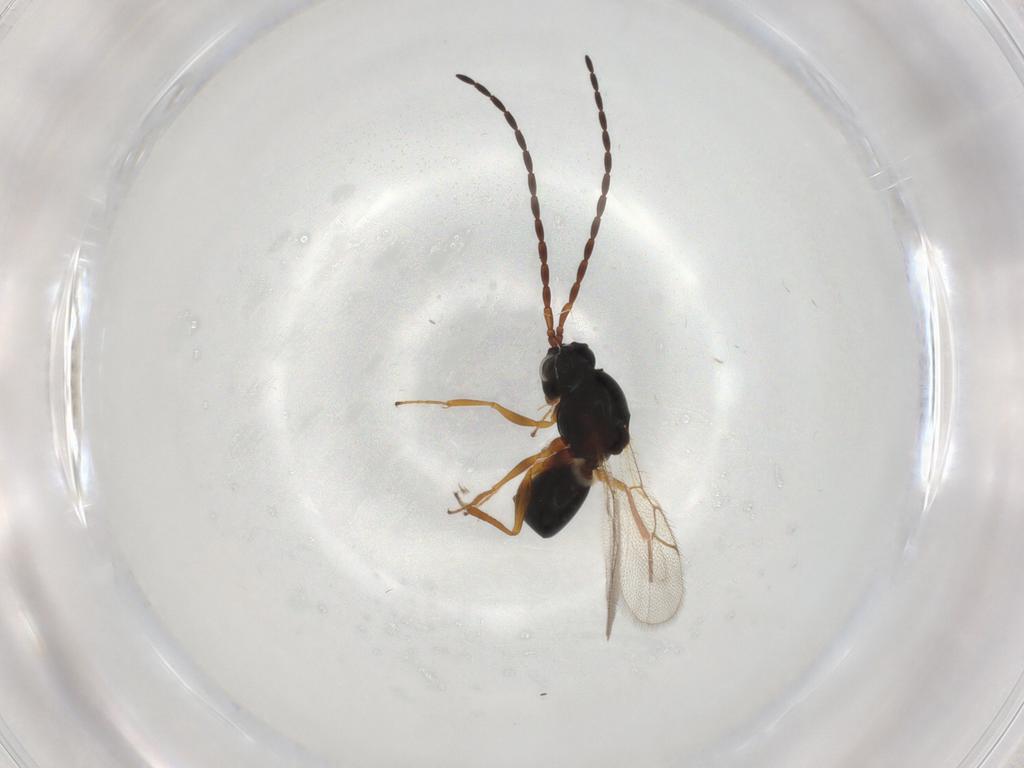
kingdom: Animalia
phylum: Arthropoda
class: Insecta
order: Hymenoptera
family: Figitidae
